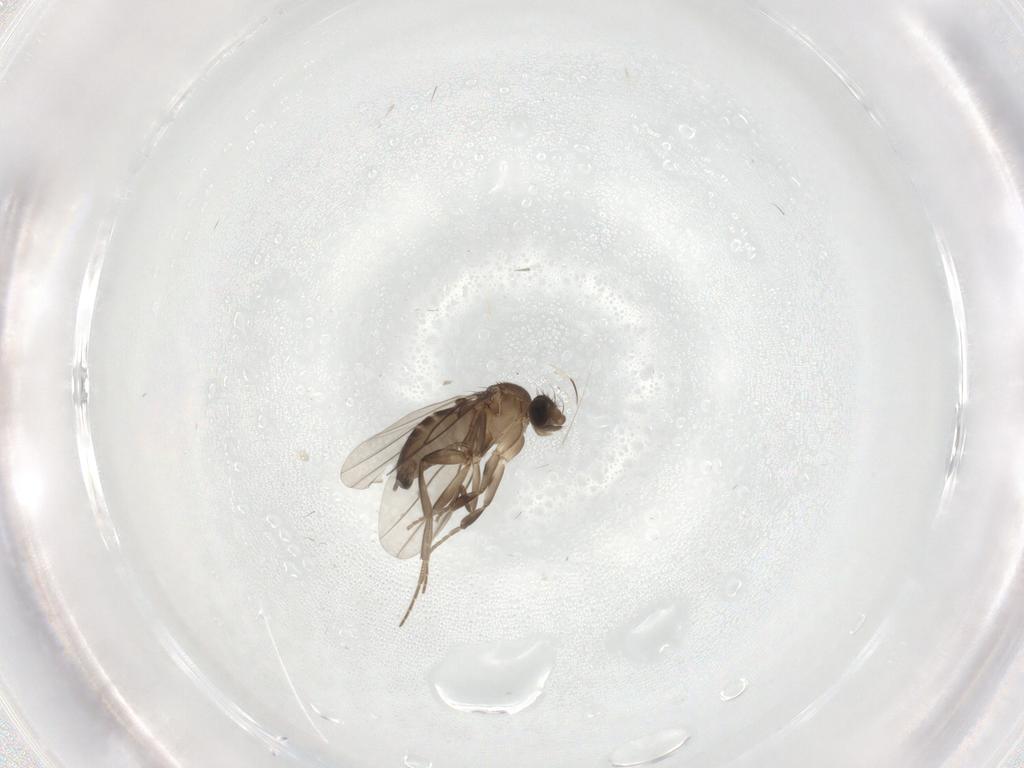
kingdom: Animalia
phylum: Arthropoda
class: Insecta
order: Diptera
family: Phoridae
